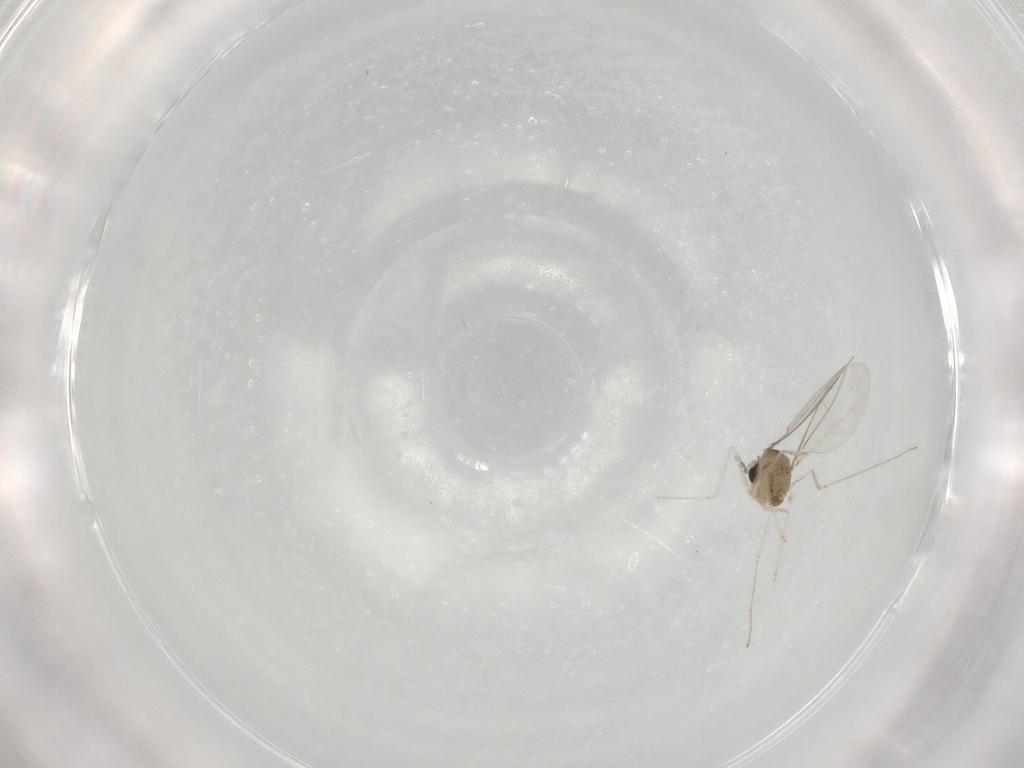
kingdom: Animalia
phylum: Arthropoda
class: Insecta
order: Diptera
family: Cecidomyiidae
